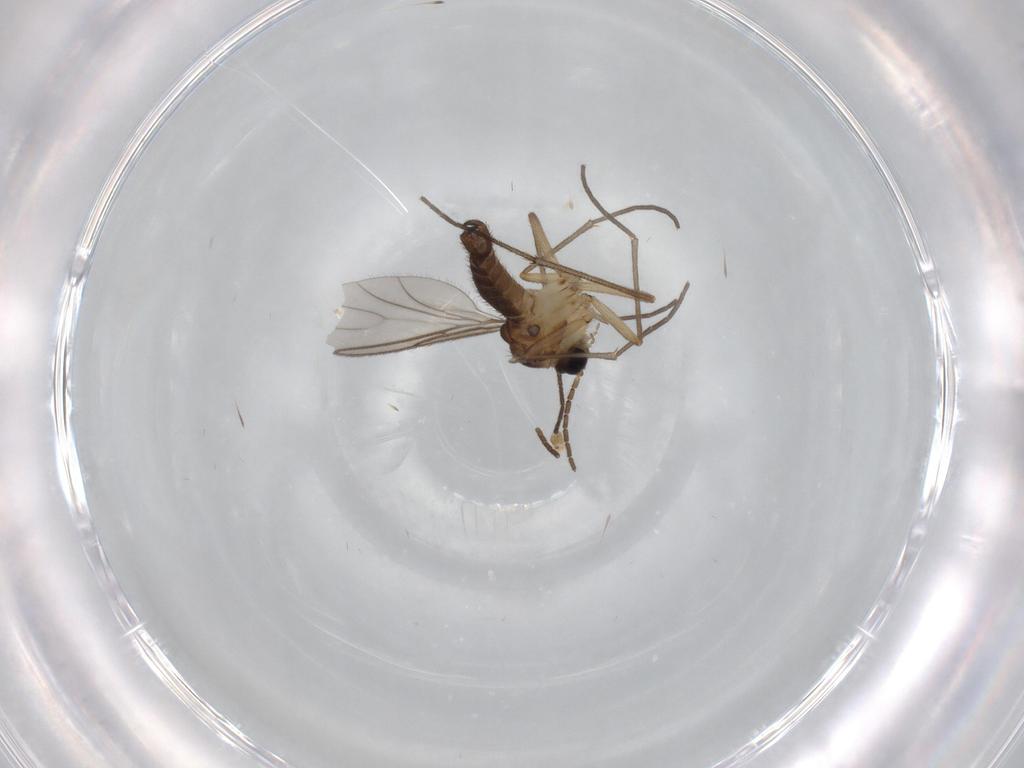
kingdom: Animalia
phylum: Arthropoda
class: Insecta
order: Diptera
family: Sciaridae
